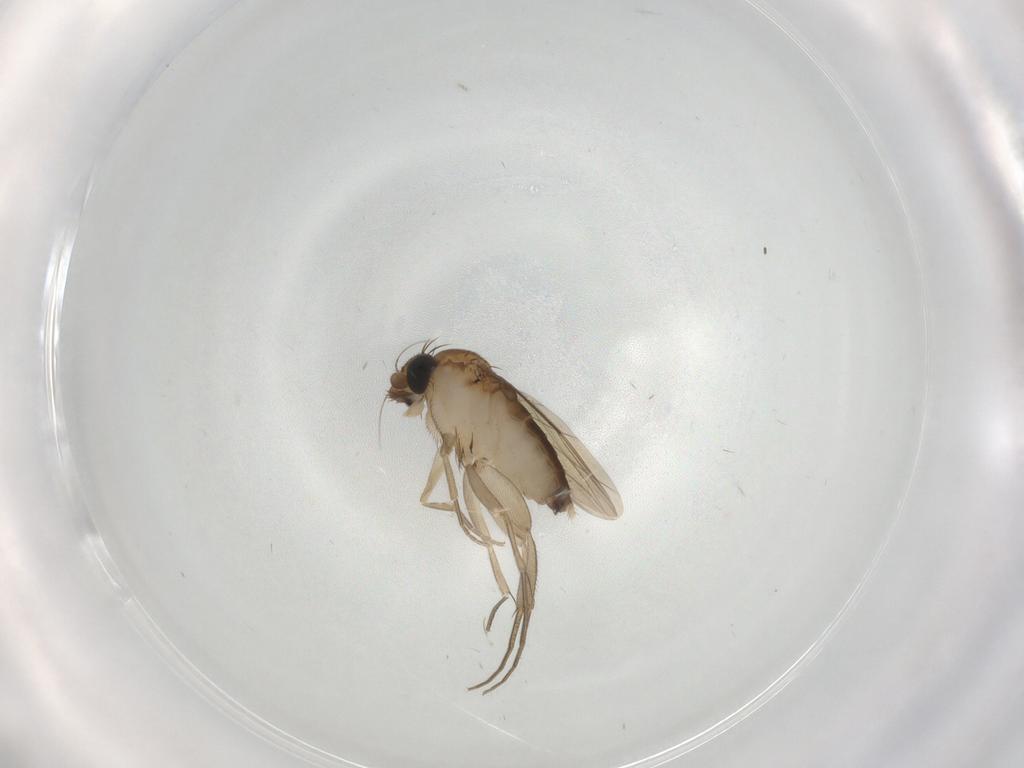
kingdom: Animalia
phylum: Arthropoda
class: Insecta
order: Diptera
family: Phoridae
